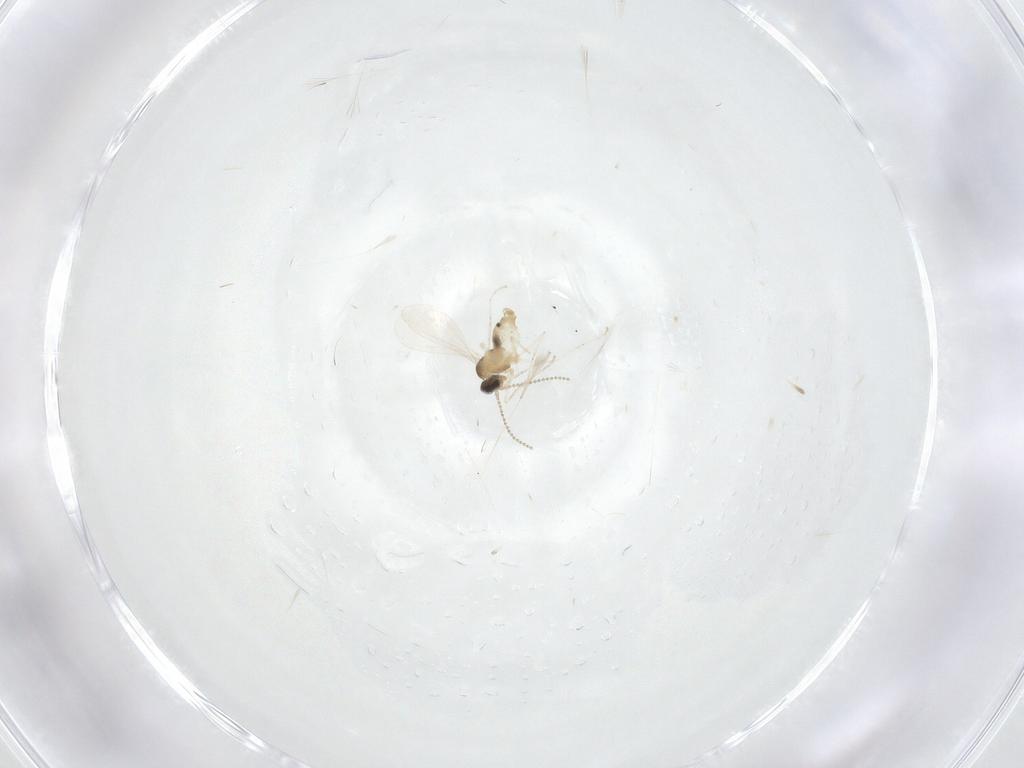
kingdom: Animalia
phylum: Arthropoda
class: Insecta
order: Diptera
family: Cecidomyiidae
